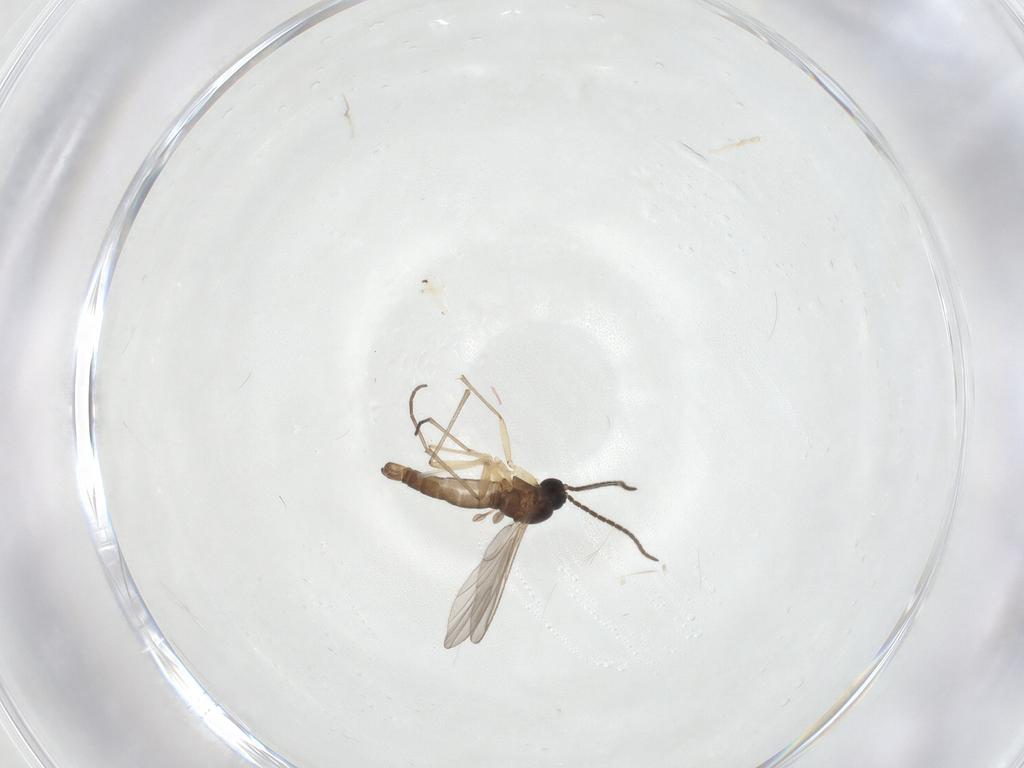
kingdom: Animalia
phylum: Arthropoda
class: Insecta
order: Diptera
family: Sciaridae
